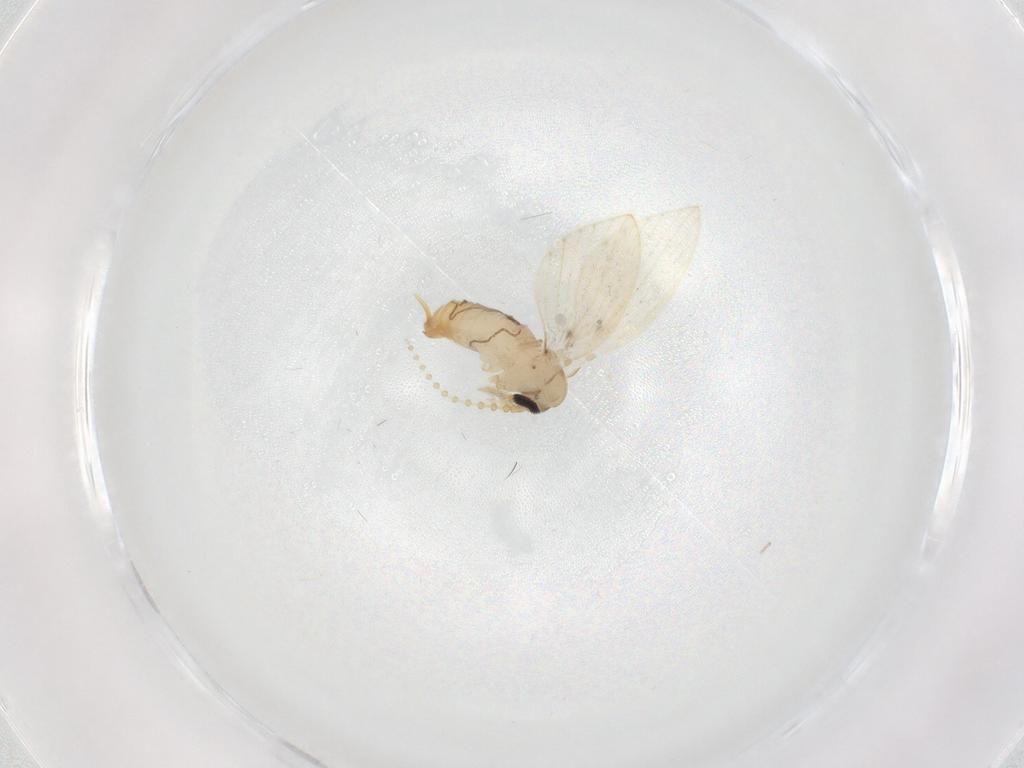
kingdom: Animalia
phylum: Arthropoda
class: Insecta
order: Diptera
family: Psychodidae
